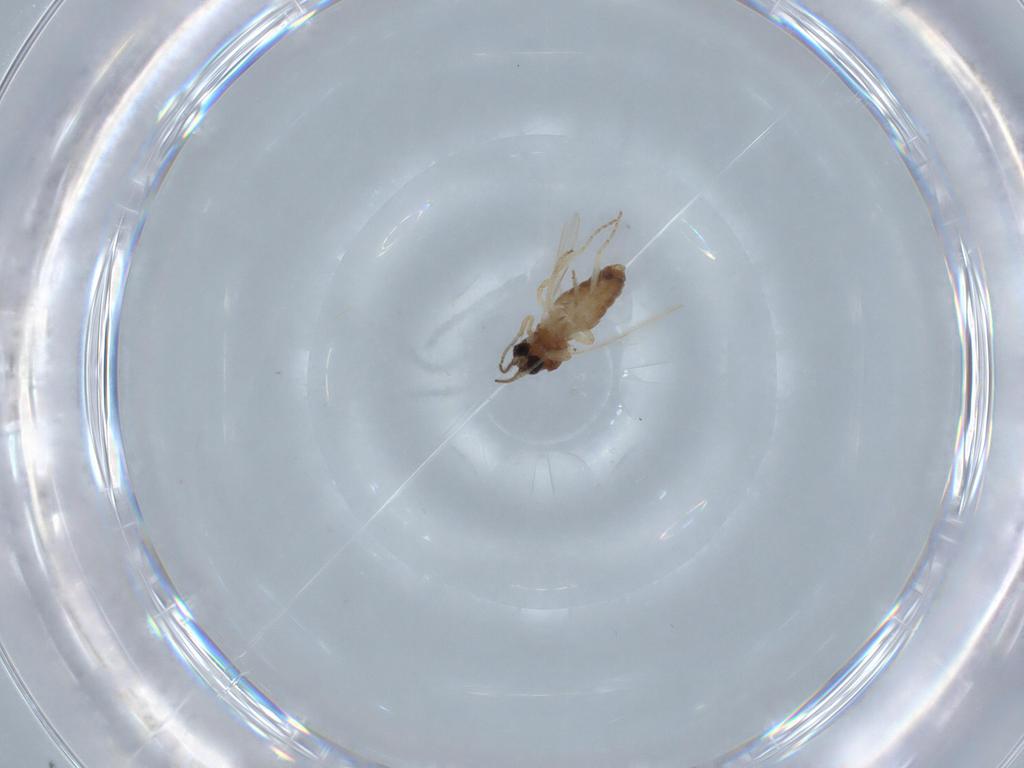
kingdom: Animalia
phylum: Arthropoda
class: Insecta
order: Diptera
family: Ceratopogonidae
